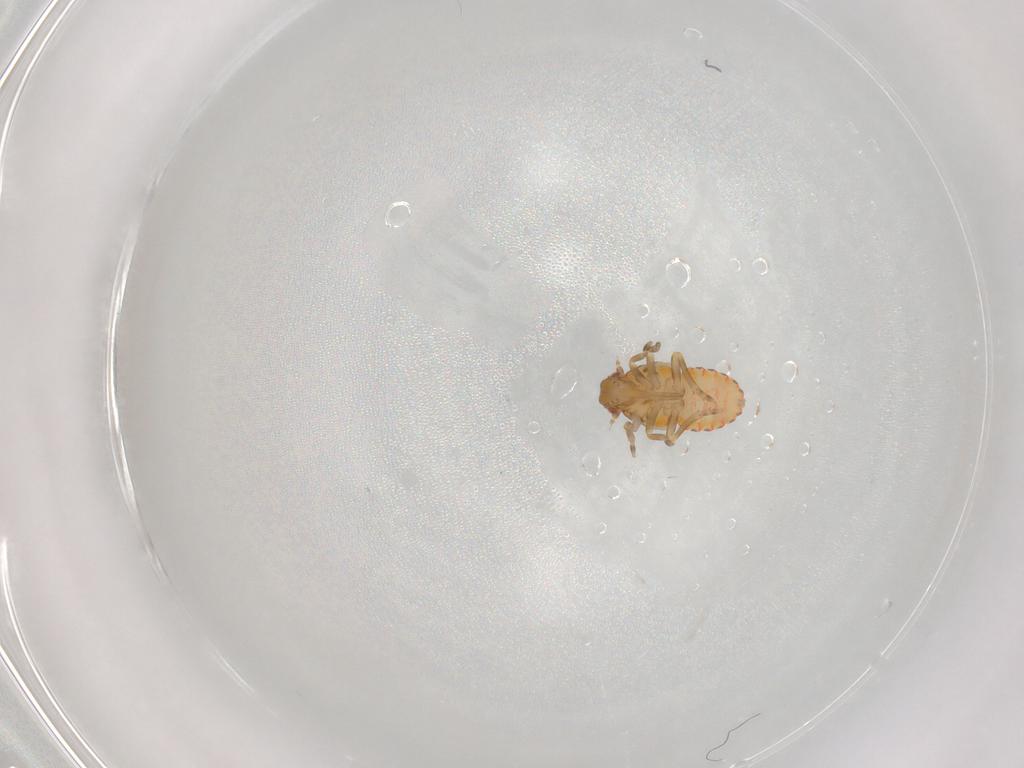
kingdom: Animalia
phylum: Arthropoda
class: Insecta
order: Hemiptera
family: Flatidae
